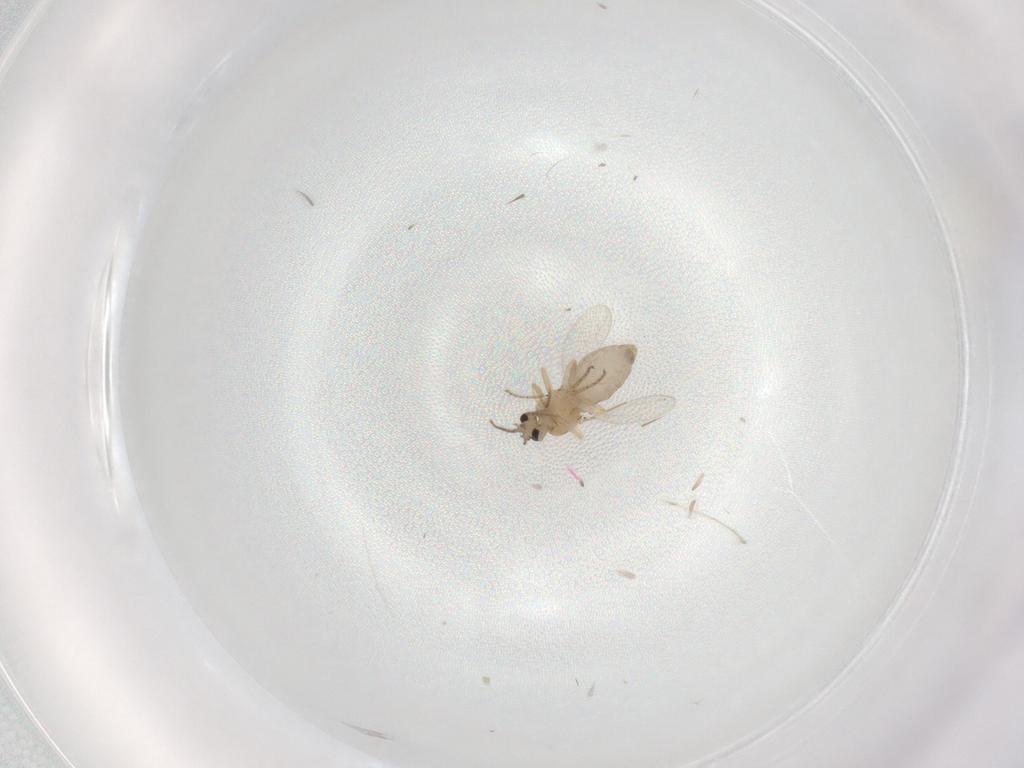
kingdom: Animalia
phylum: Arthropoda
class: Insecta
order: Diptera
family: Ceratopogonidae
